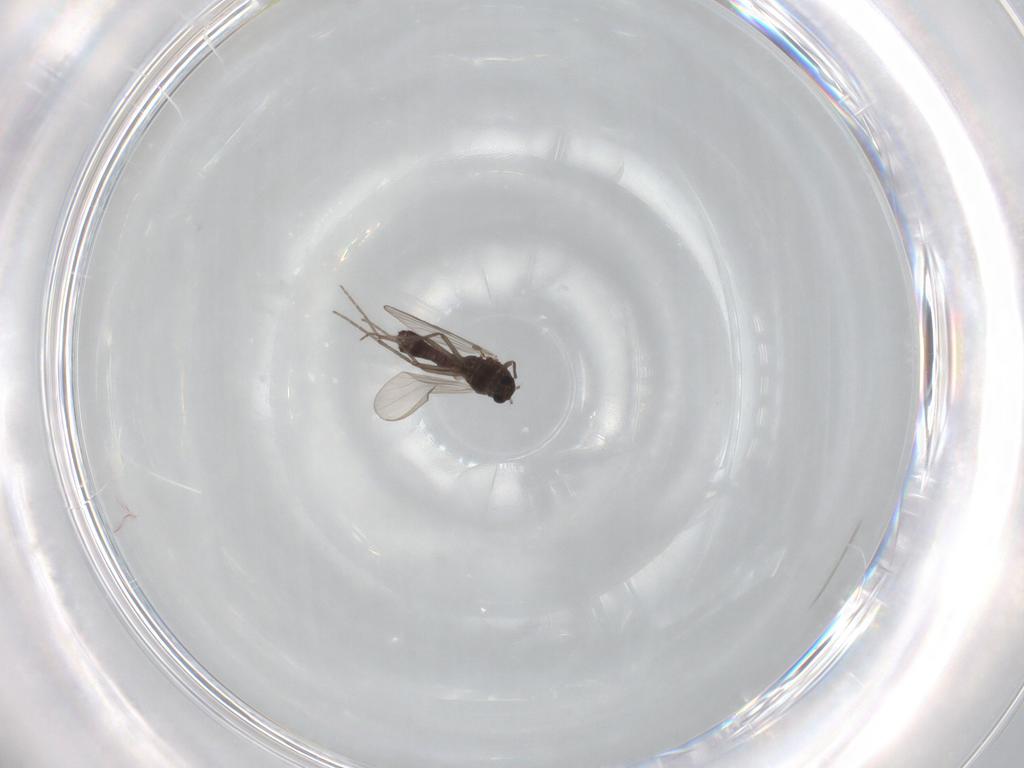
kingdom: Animalia
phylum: Arthropoda
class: Insecta
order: Diptera
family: Chironomidae
